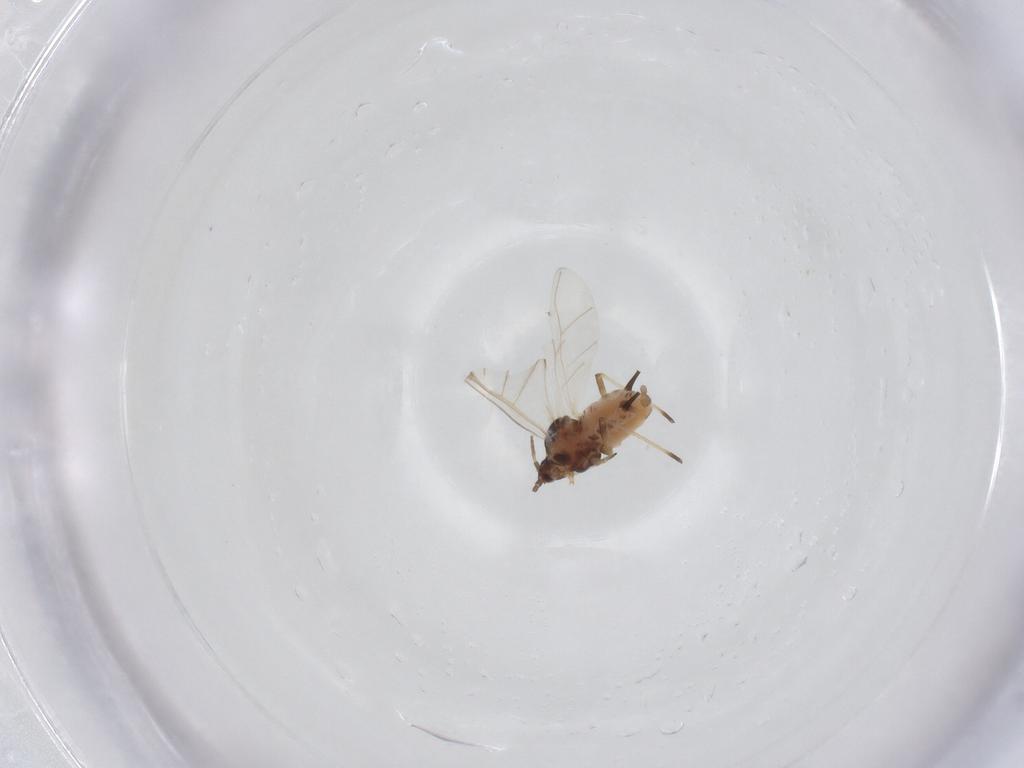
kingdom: Animalia
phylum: Arthropoda
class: Insecta
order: Hemiptera
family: Aphididae
